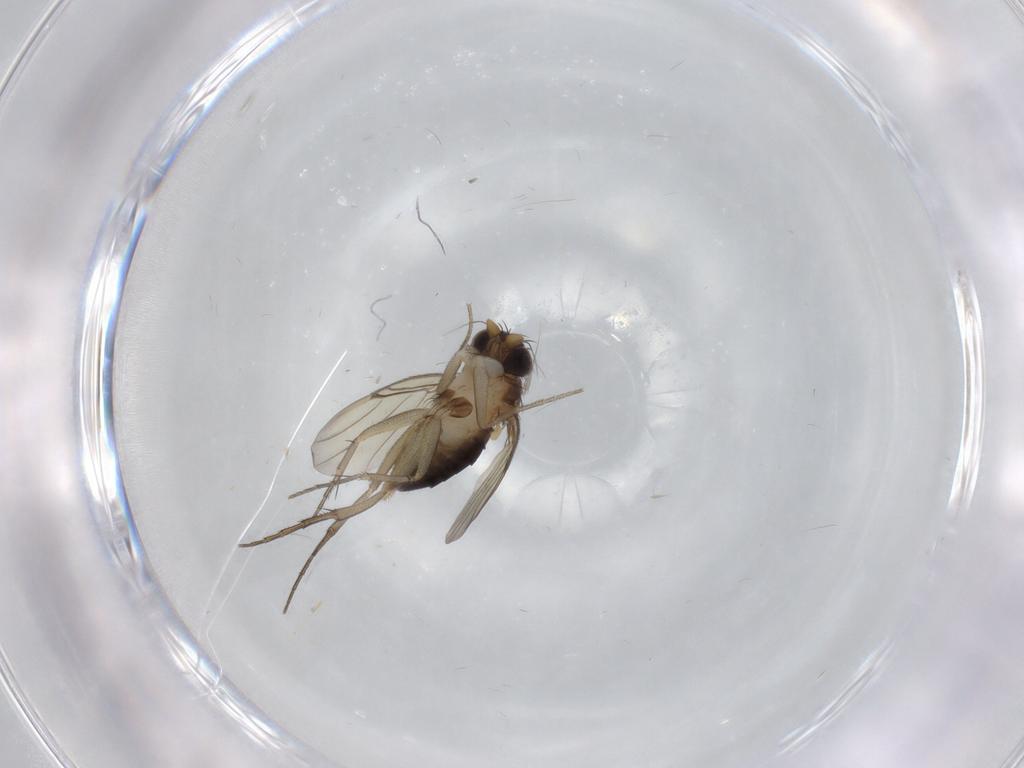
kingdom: Animalia
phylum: Arthropoda
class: Insecta
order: Diptera
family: Phoridae
